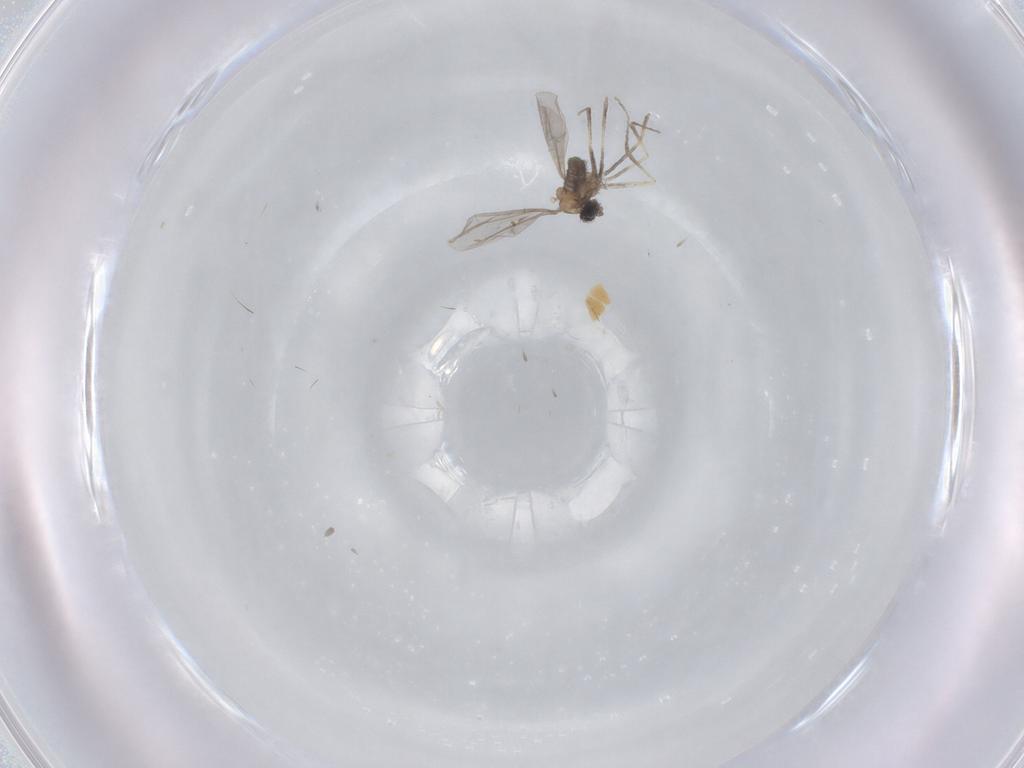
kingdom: Animalia
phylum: Arthropoda
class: Insecta
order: Diptera
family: Cecidomyiidae
